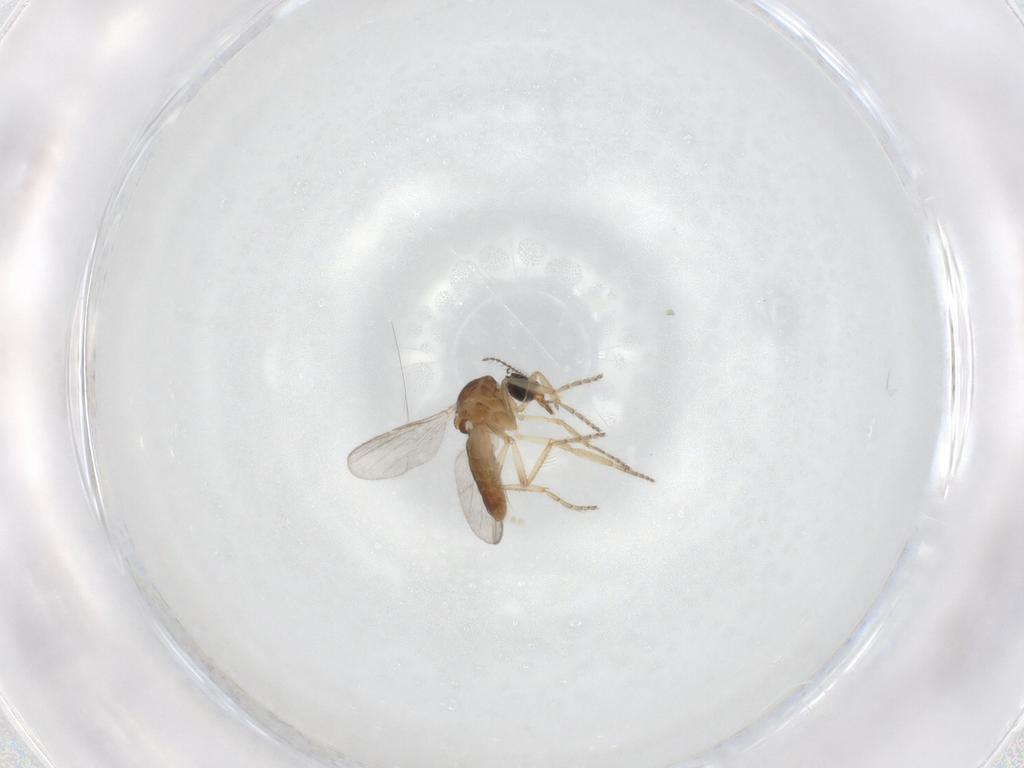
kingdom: Animalia
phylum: Arthropoda
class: Insecta
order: Diptera
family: Ceratopogonidae
